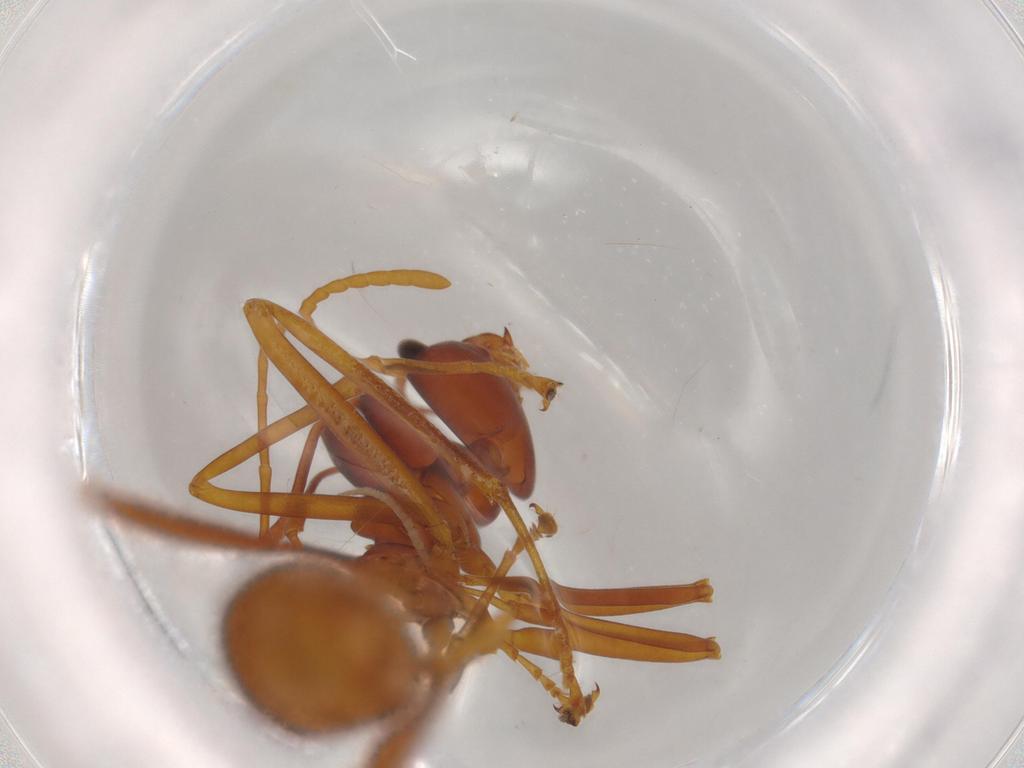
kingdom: Animalia
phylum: Arthropoda
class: Insecta
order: Hymenoptera
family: Formicidae
